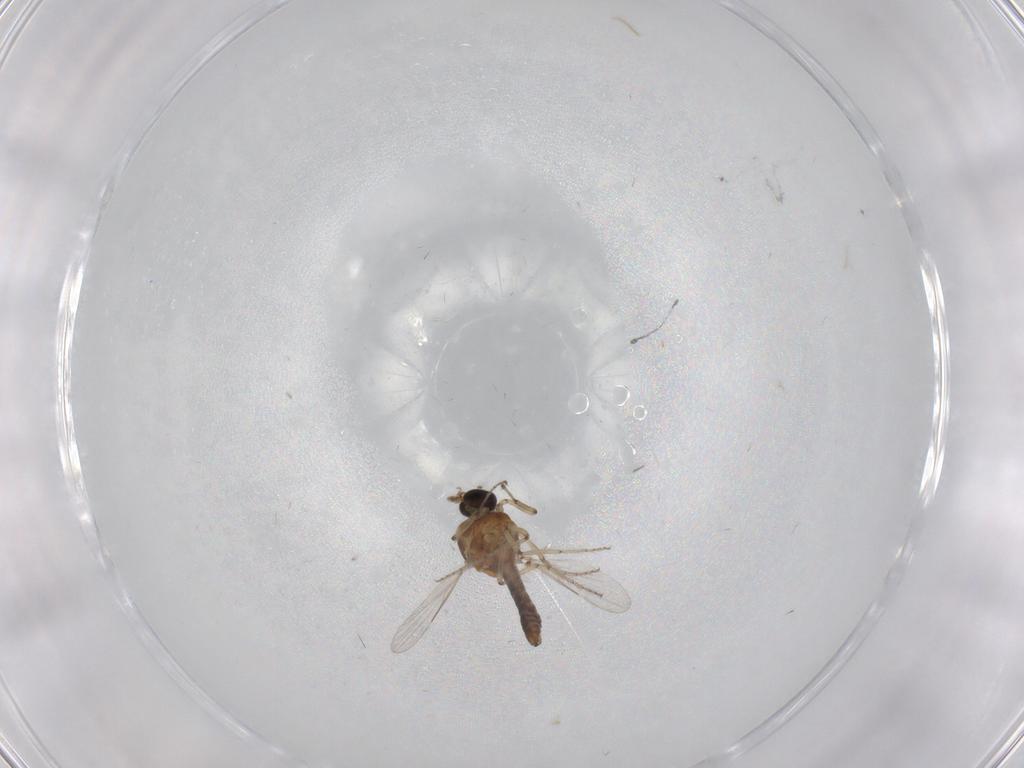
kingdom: Animalia
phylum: Arthropoda
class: Insecta
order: Diptera
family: Ceratopogonidae
